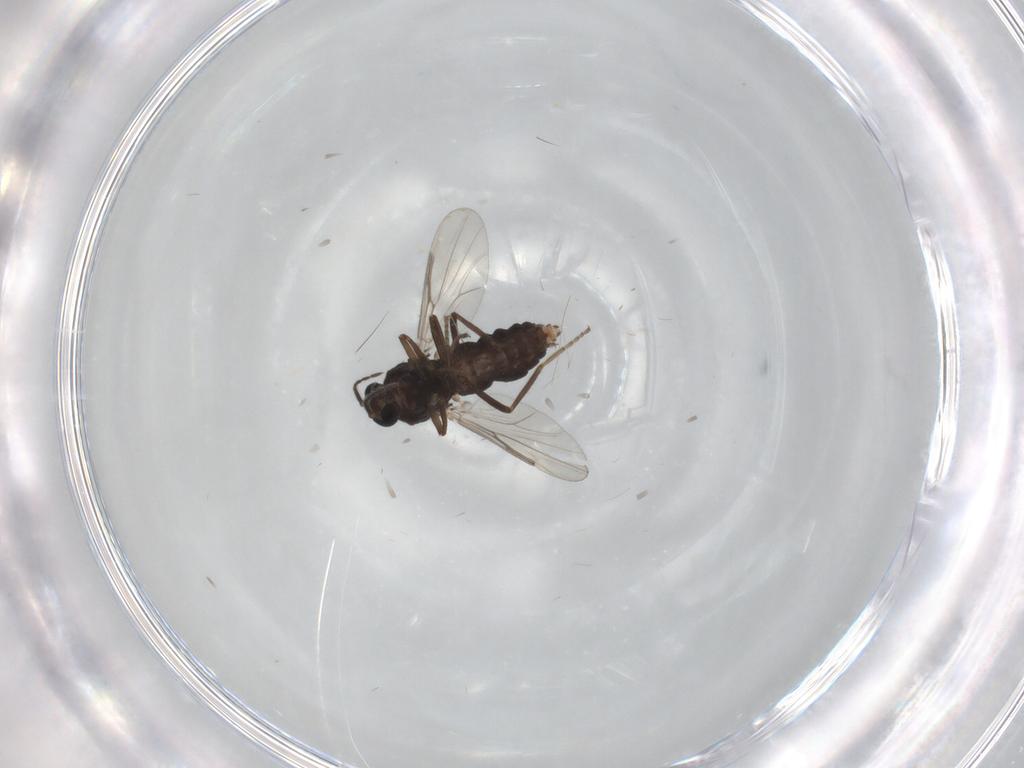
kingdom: Animalia
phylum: Arthropoda
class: Insecta
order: Diptera
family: Ceratopogonidae
